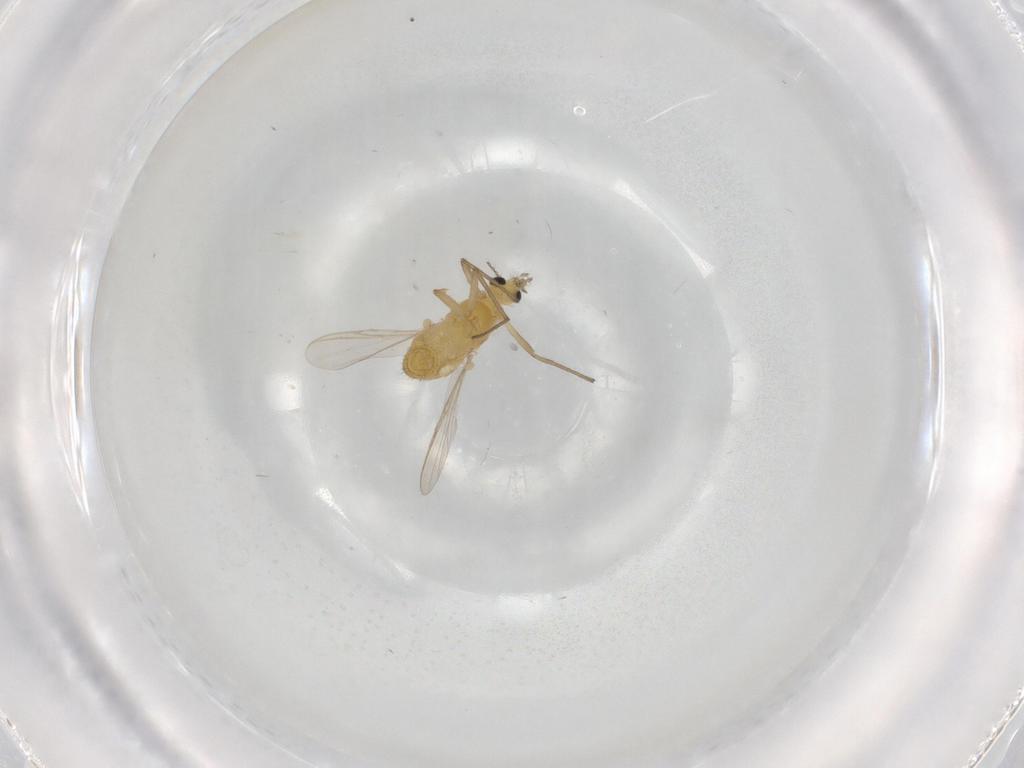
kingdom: Animalia
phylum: Arthropoda
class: Insecta
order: Diptera
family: Chironomidae
